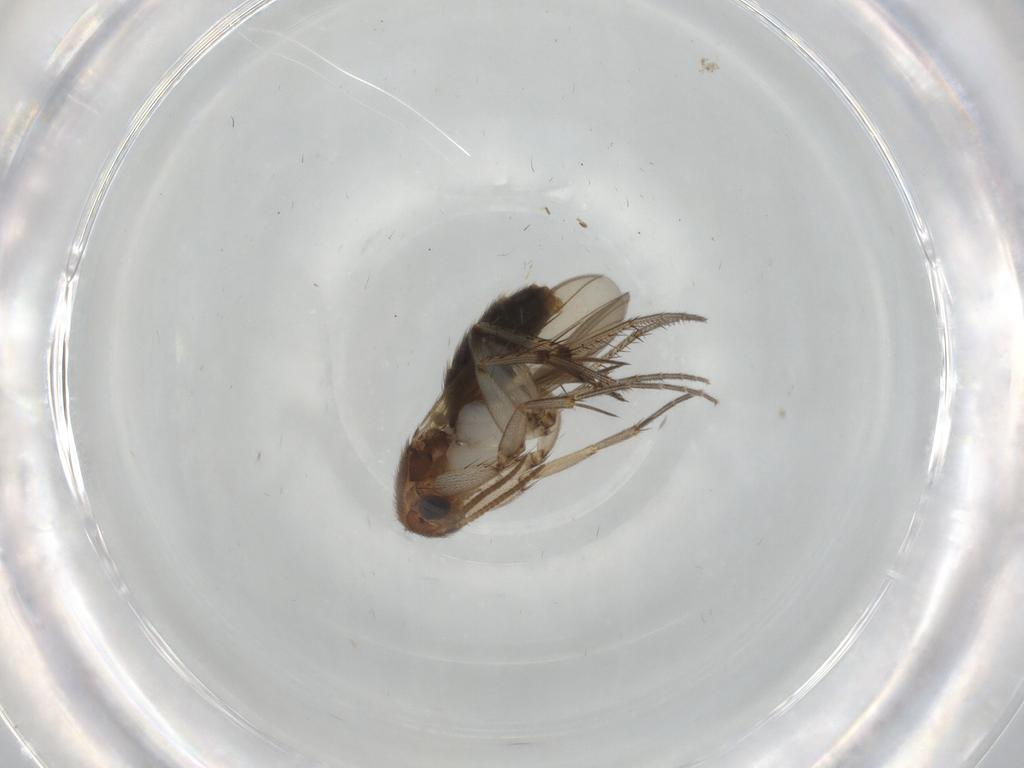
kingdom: Animalia
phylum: Arthropoda
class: Insecta
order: Diptera
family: Mycetophilidae
